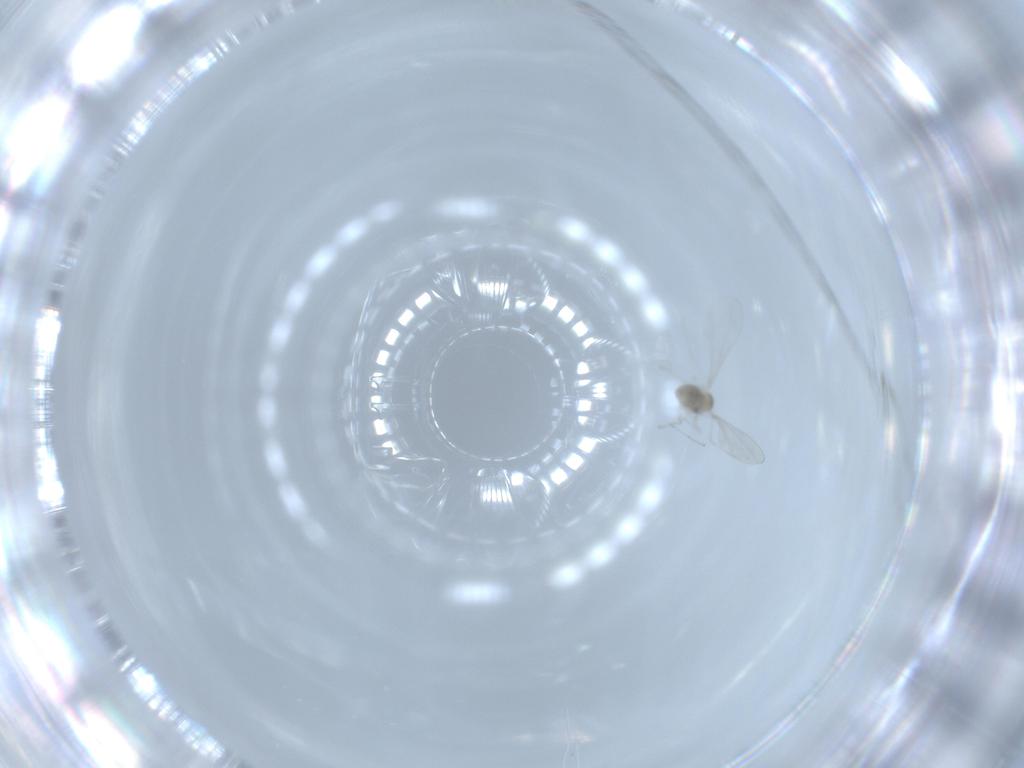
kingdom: Animalia
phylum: Arthropoda
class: Insecta
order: Diptera
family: Cecidomyiidae
